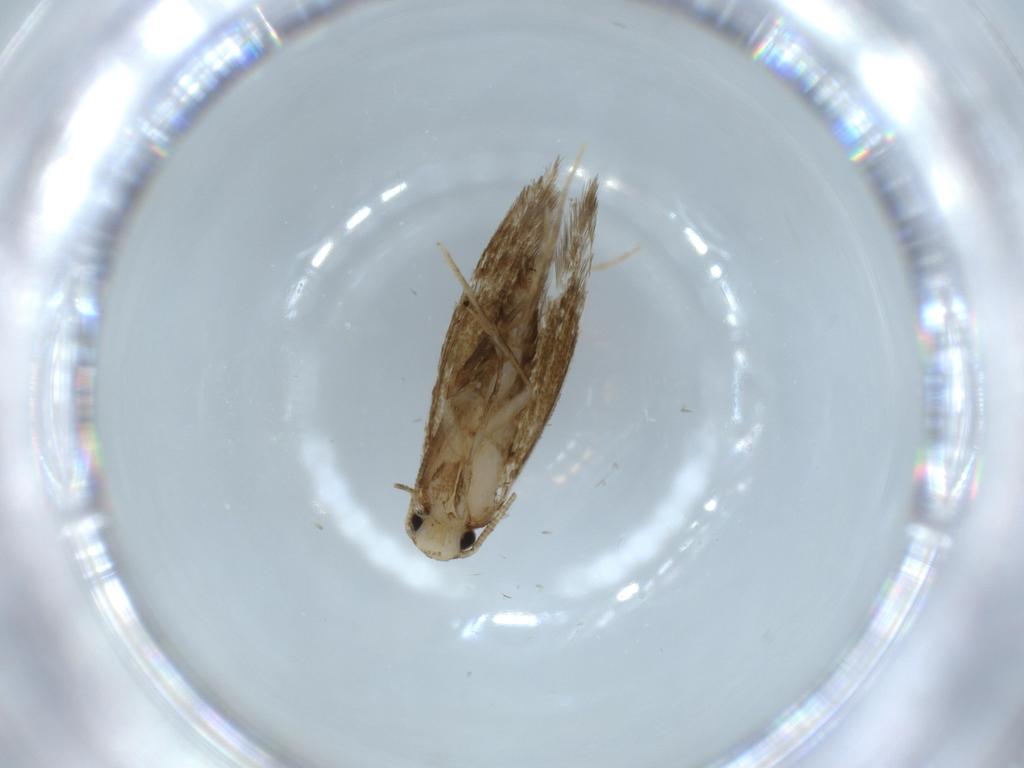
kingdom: Animalia
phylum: Arthropoda
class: Insecta
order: Lepidoptera
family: Tineidae
